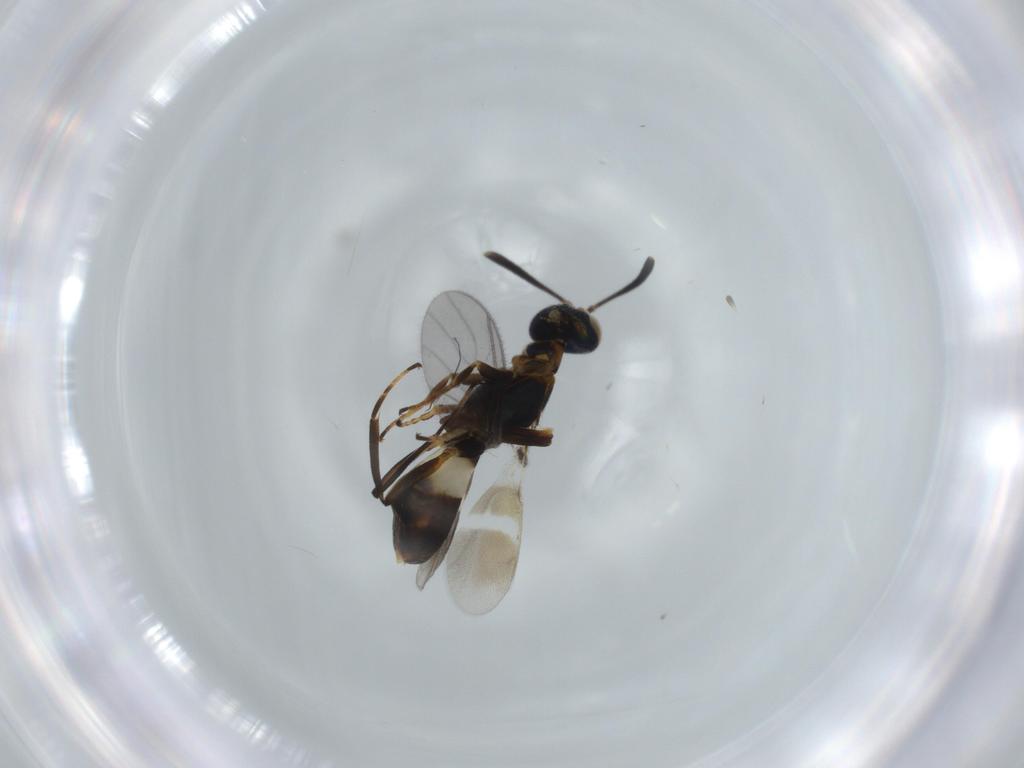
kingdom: Animalia
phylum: Arthropoda
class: Insecta
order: Hymenoptera
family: Eupelmidae
